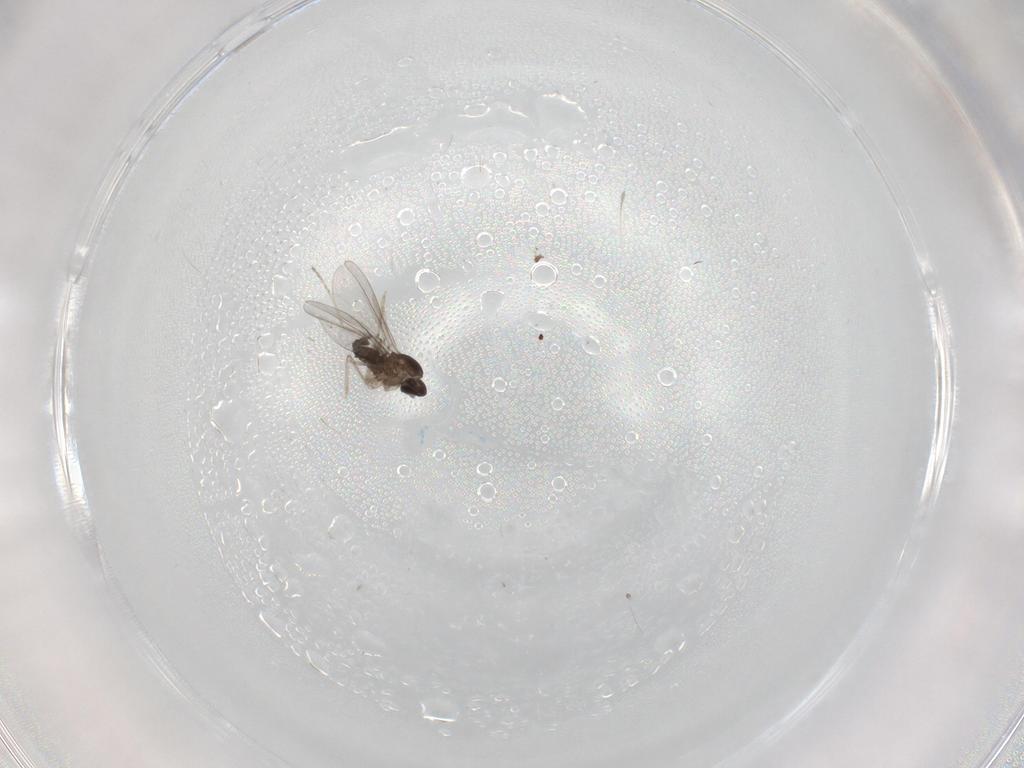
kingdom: Animalia
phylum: Arthropoda
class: Insecta
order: Diptera
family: Cecidomyiidae
